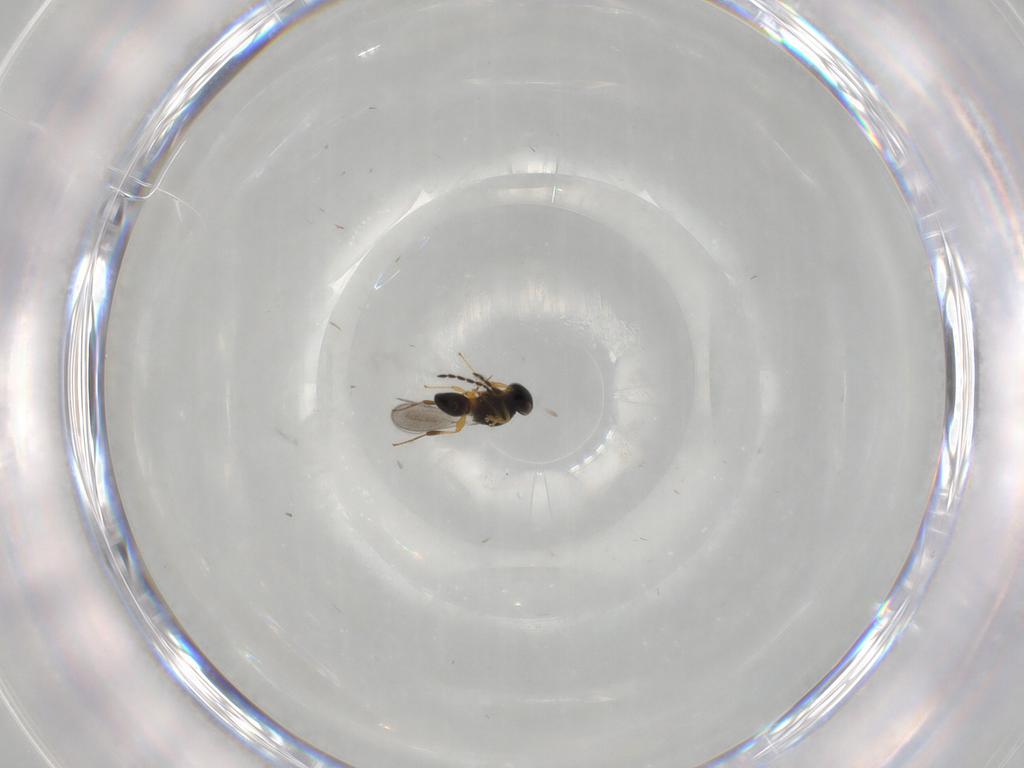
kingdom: Animalia
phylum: Arthropoda
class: Insecta
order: Hymenoptera
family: Platygastridae
